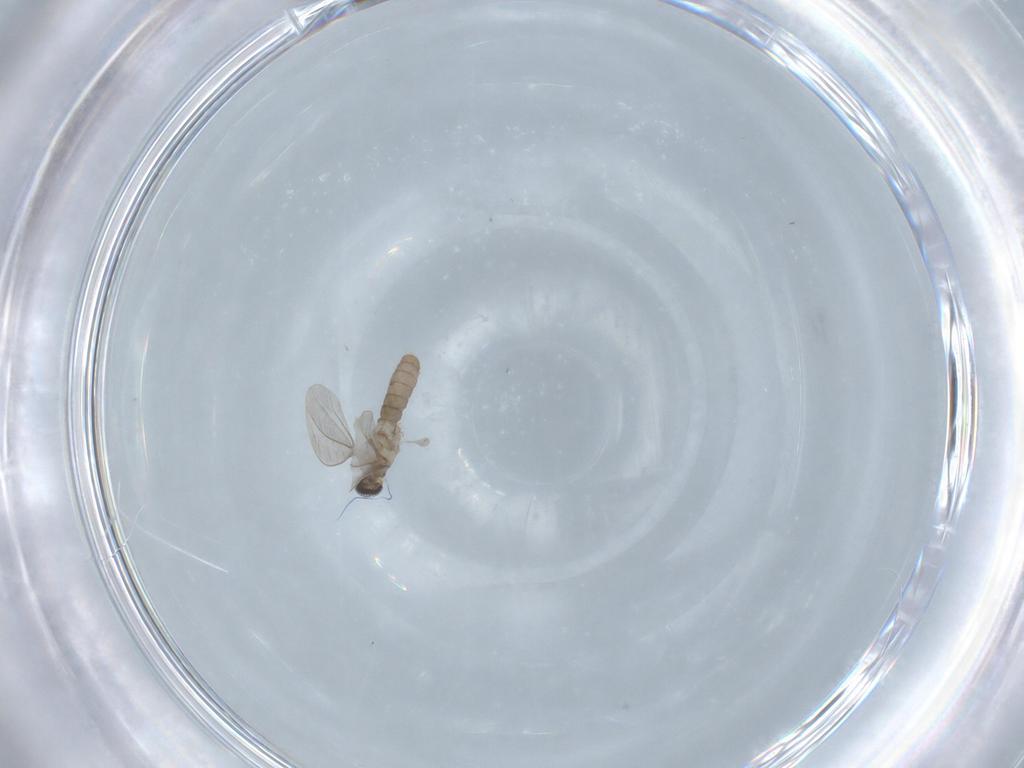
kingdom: Animalia
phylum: Arthropoda
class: Insecta
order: Diptera
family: Cecidomyiidae
